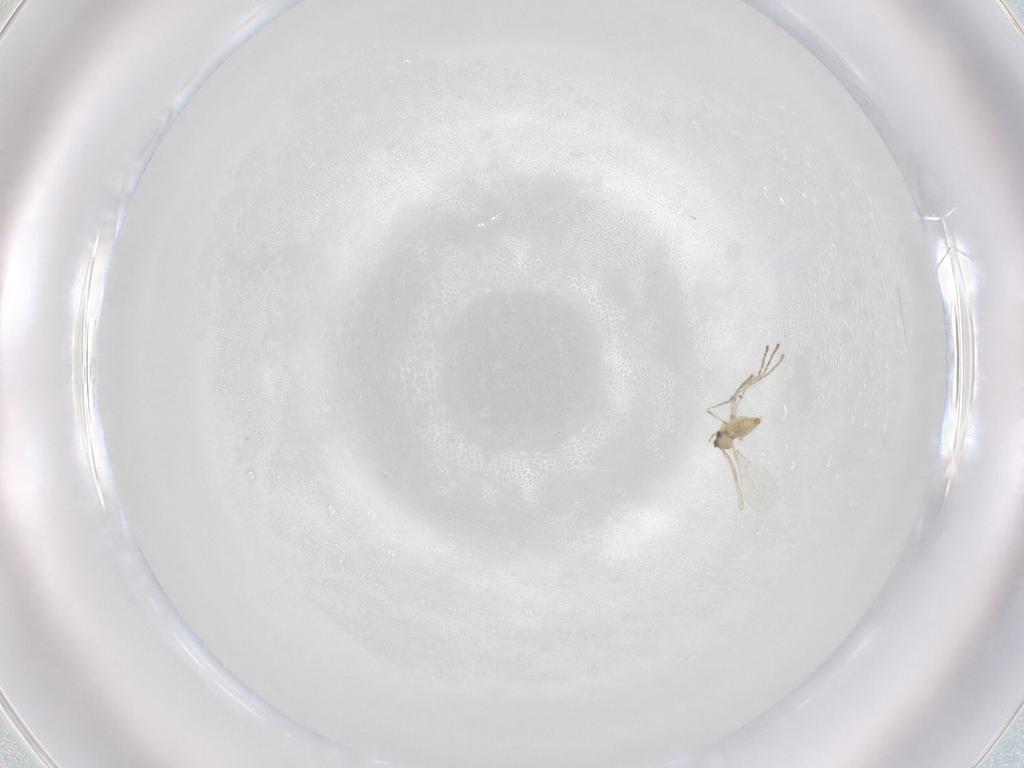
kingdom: Animalia
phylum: Arthropoda
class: Insecta
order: Diptera
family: Cecidomyiidae
